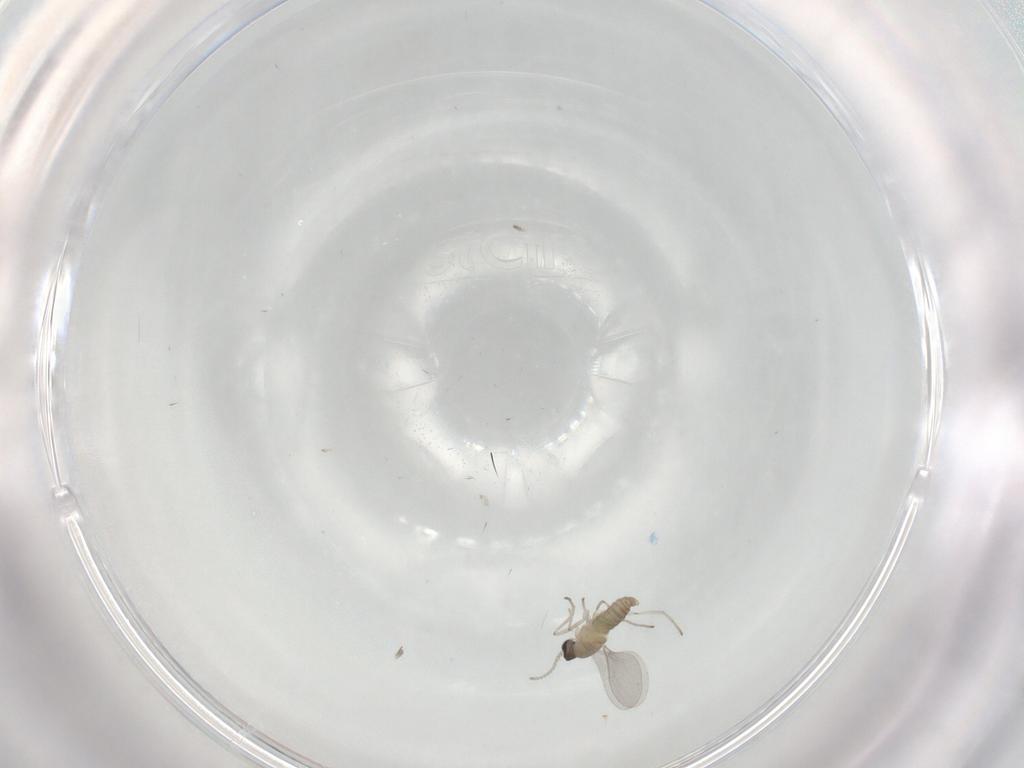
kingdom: Animalia
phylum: Arthropoda
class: Insecta
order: Diptera
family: Cecidomyiidae
